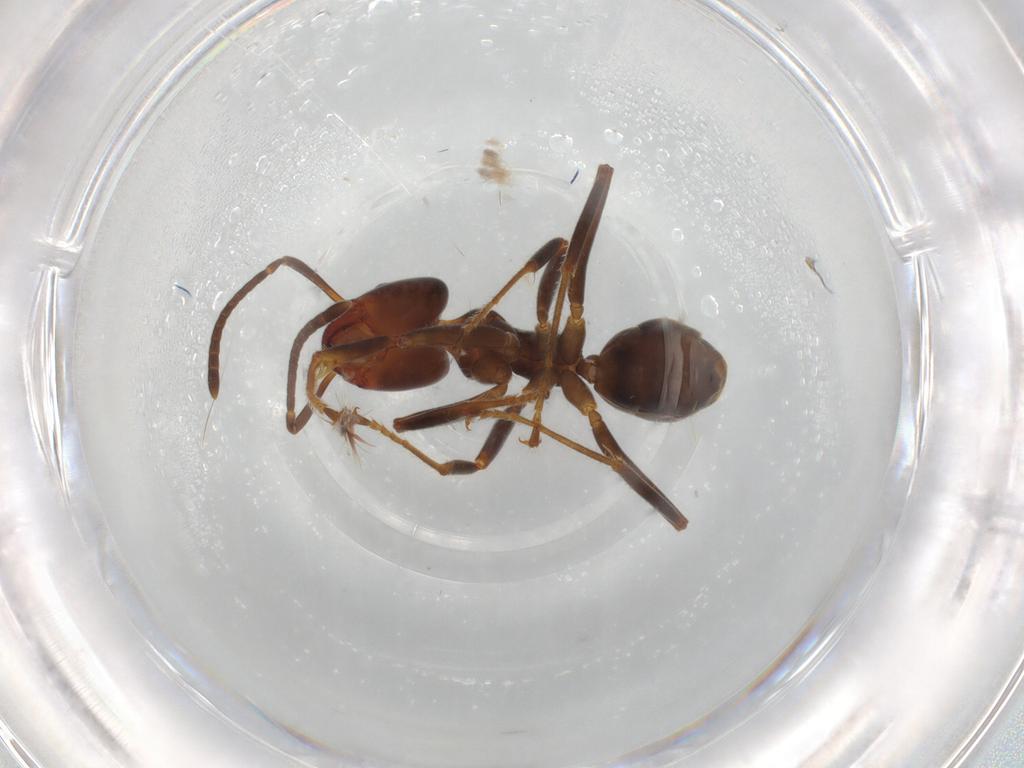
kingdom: Animalia
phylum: Arthropoda
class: Insecta
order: Hymenoptera
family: Formicidae
